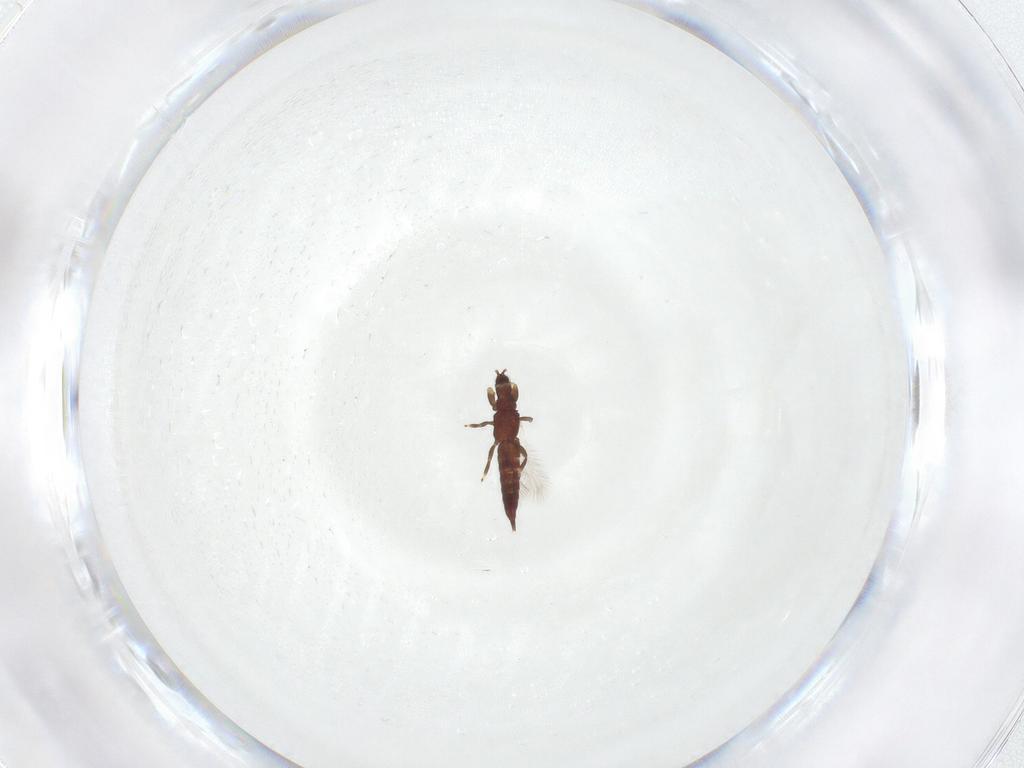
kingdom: Animalia
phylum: Arthropoda
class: Insecta
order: Thysanoptera
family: Phlaeothripidae
